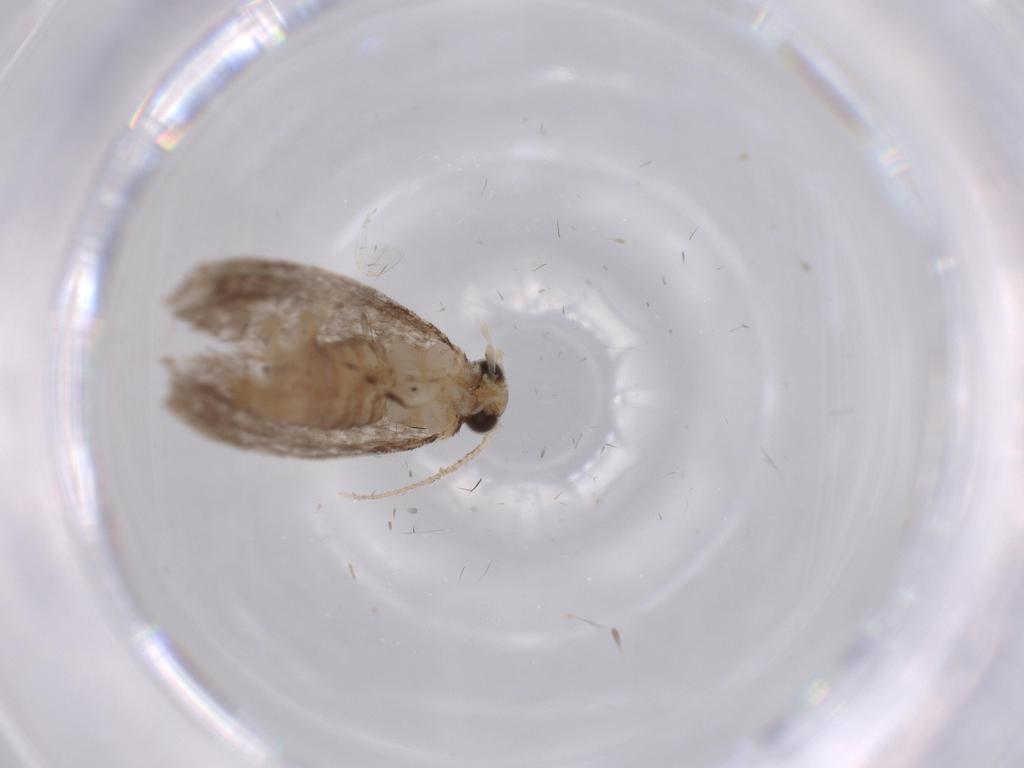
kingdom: Animalia
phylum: Arthropoda
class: Insecta
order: Lepidoptera
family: Tineidae
